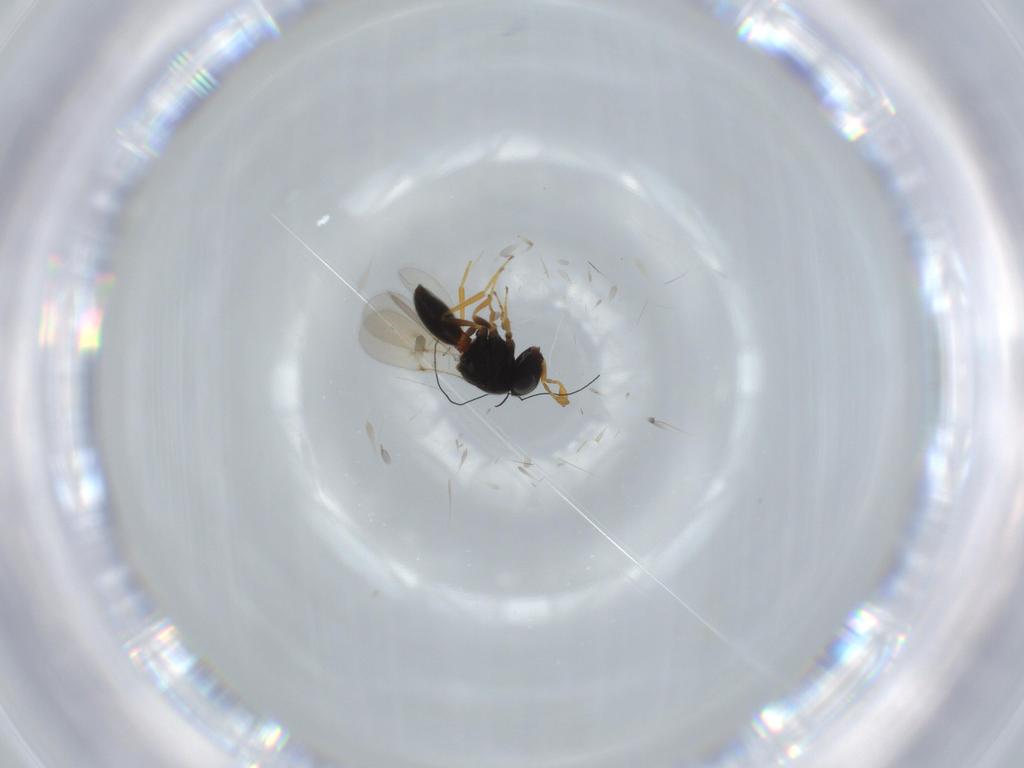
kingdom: Animalia
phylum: Arthropoda
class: Insecta
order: Hymenoptera
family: Scelionidae
